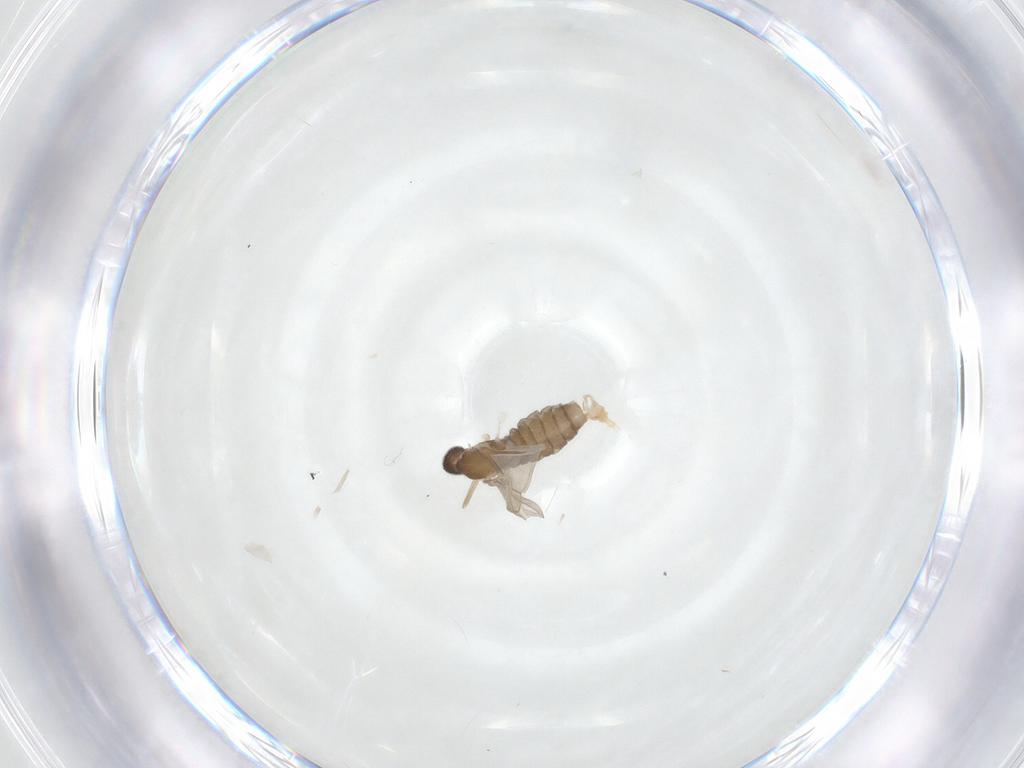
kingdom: Animalia
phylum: Arthropoda
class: Insecta
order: Diptera
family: Cecidomyiidae
